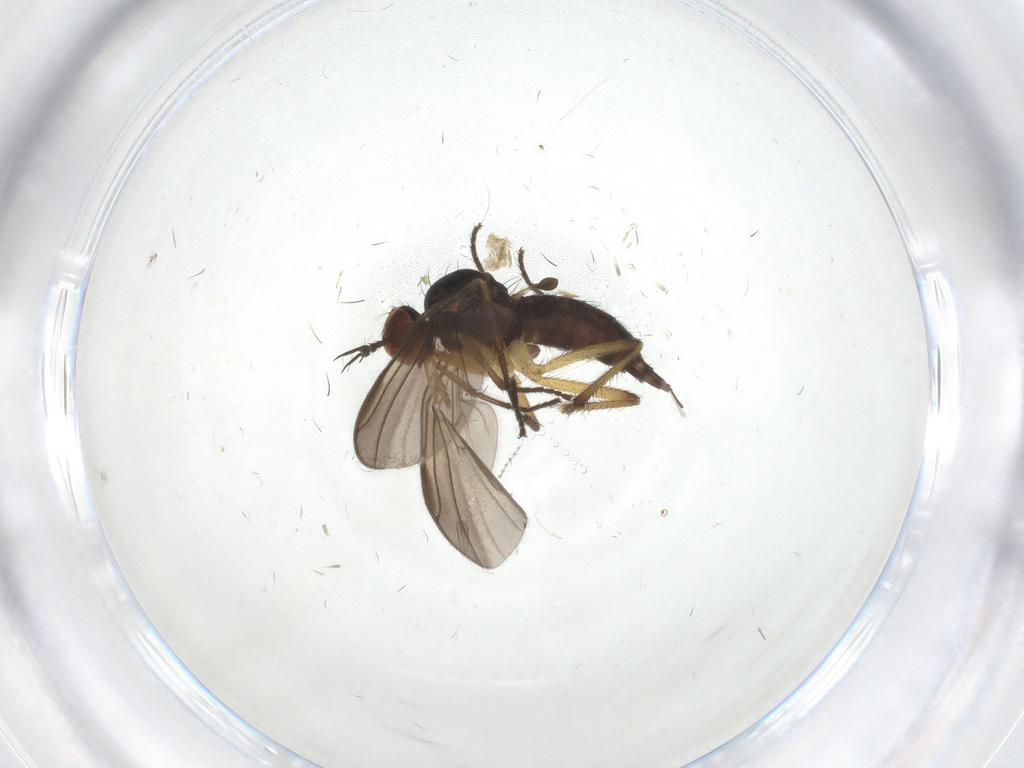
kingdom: Animalia
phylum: Arthropoda
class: Insecta
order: Diptera
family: Empididae
